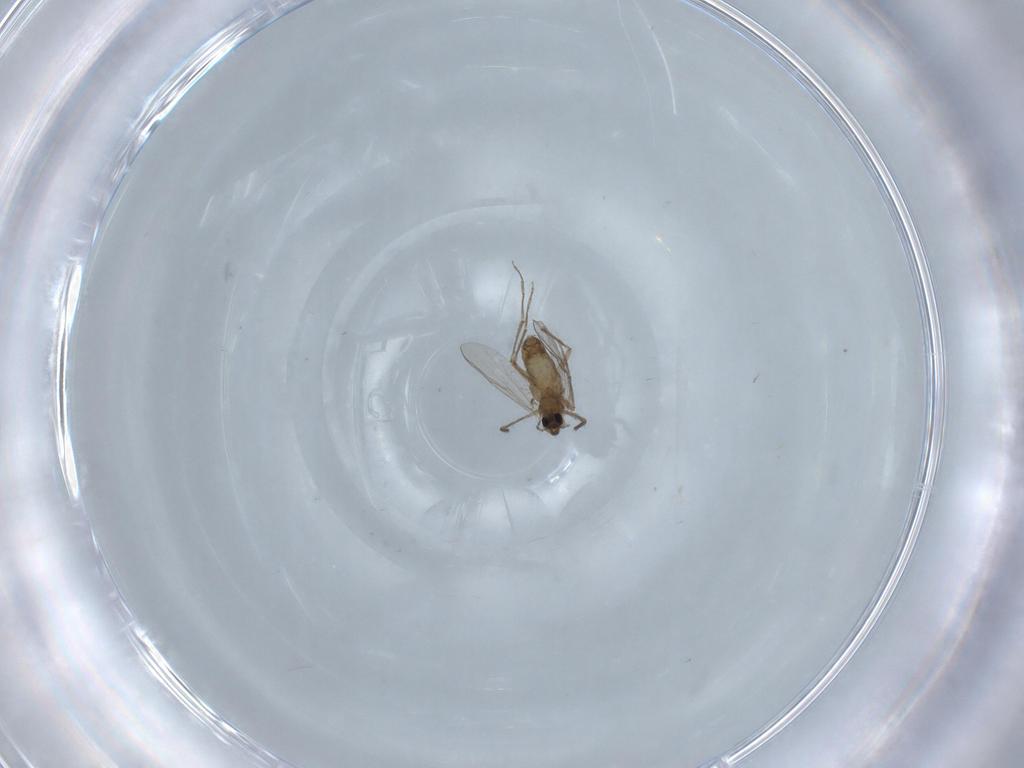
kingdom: Animalia
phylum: Arthropoda
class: Insecta
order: Diptera
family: Chironomidae
